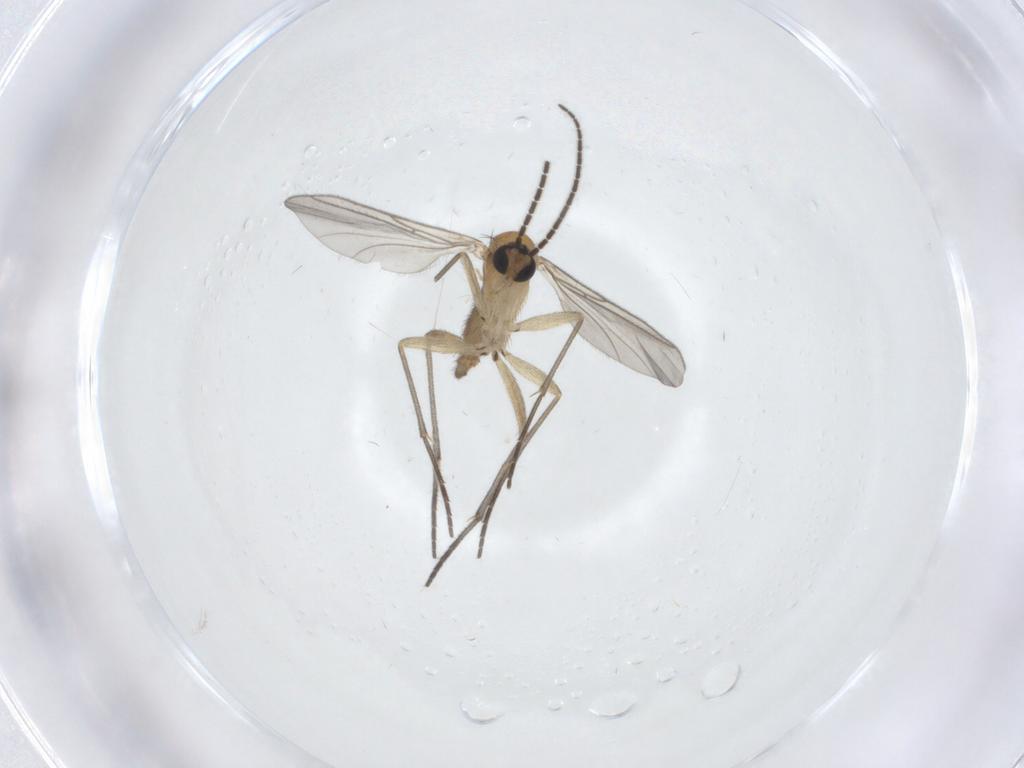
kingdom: Animalia
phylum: Arthropoda
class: Insecta
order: Diptera
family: Sciaridae
